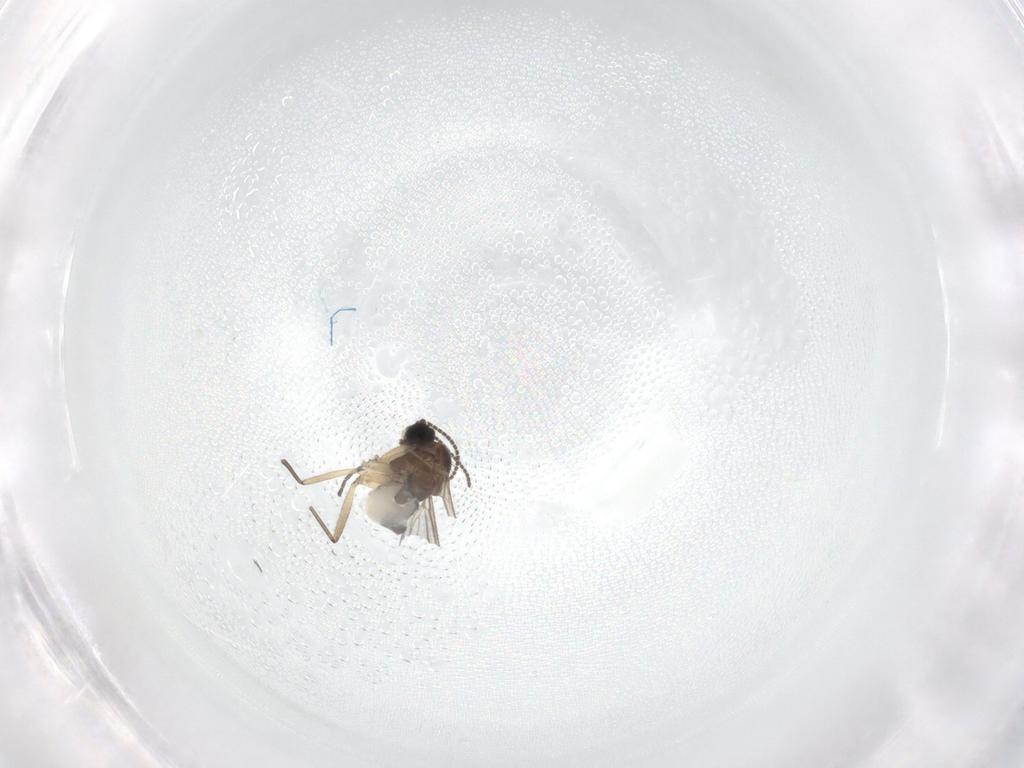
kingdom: Animalia
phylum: Arthropoda
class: Insecta
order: Diptera
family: Sciaridae
